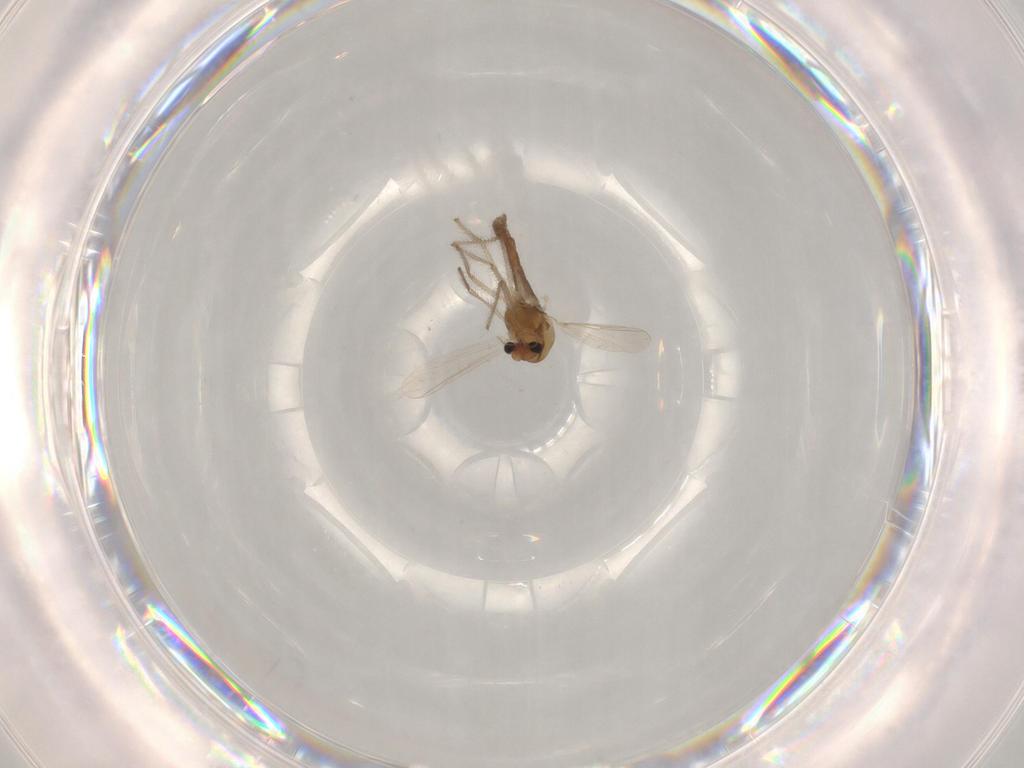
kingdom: Animalia
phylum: Arthropoda
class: Insecta
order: Diptera
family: Chironomidae
